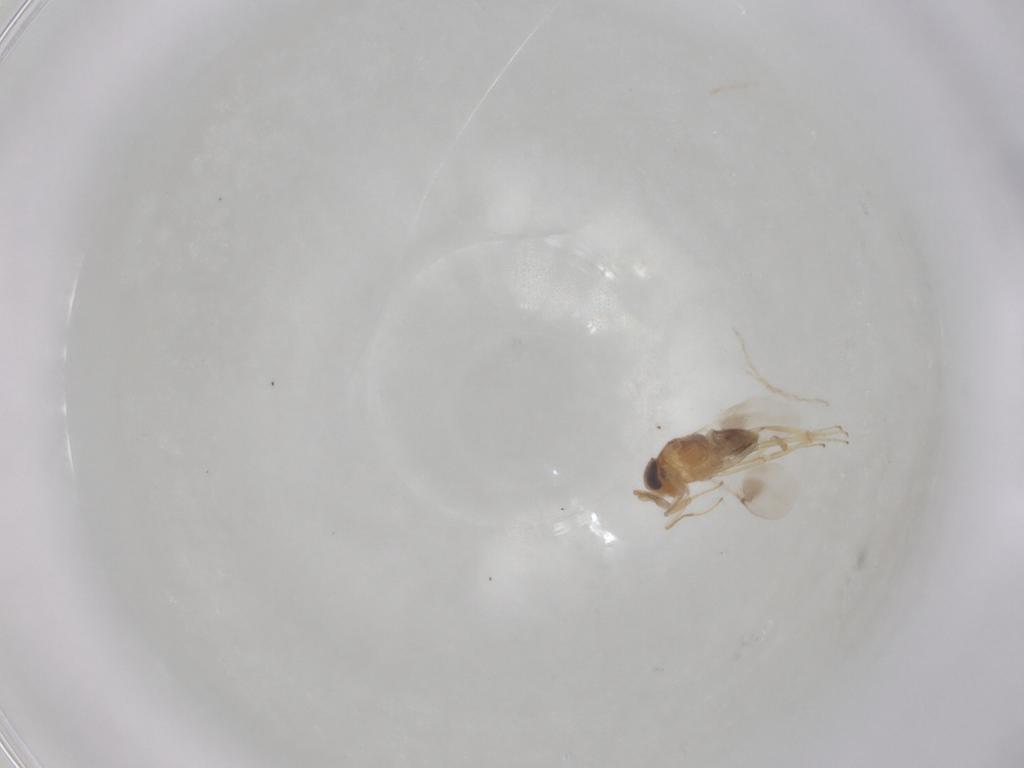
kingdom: Animalia
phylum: Arthropoda
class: Insecta
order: Hymenoptera
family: Encyrtidae
